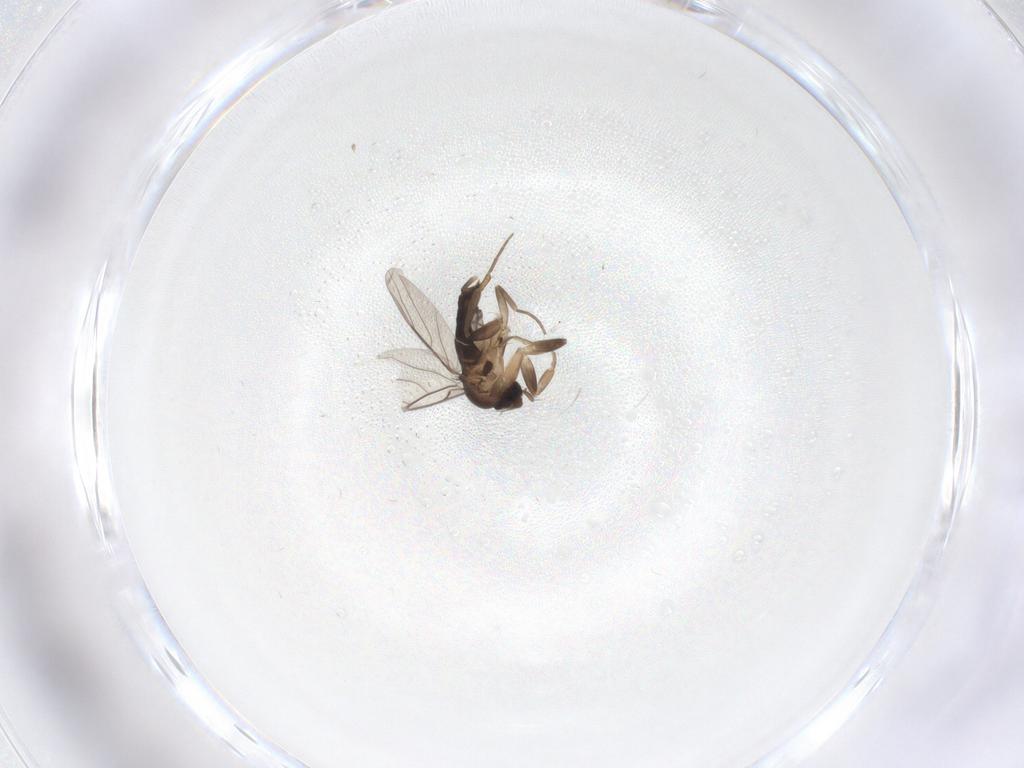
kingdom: Animalia
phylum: Arthropoda
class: Insecta
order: Diptera
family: Phoridae
